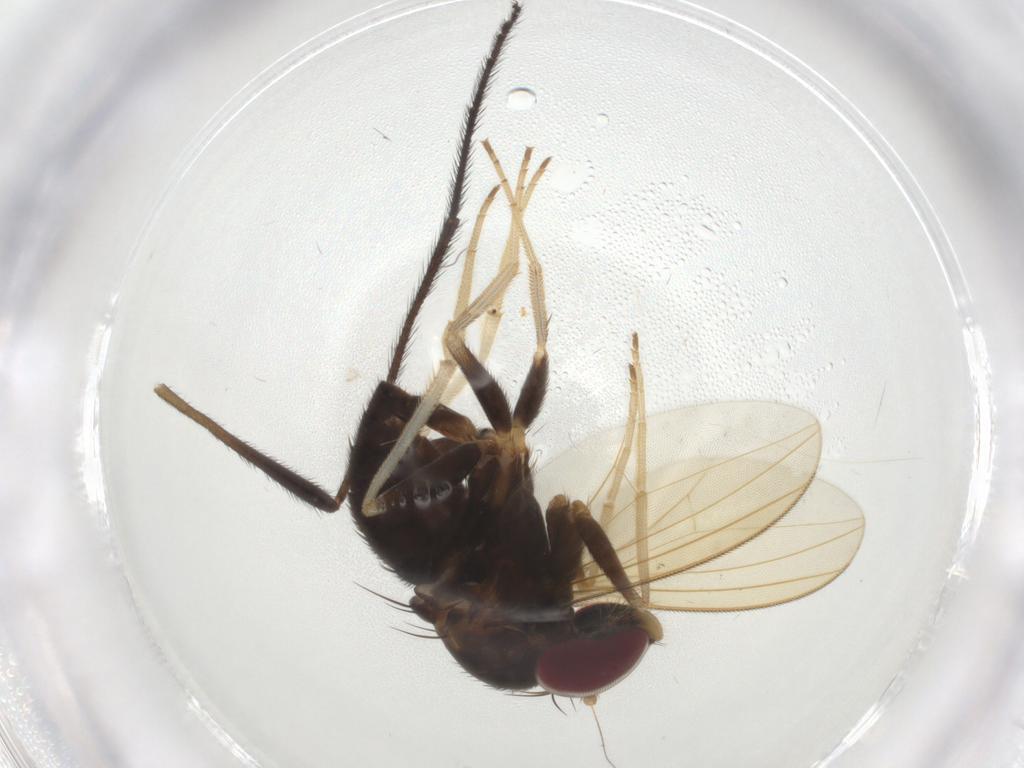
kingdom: Animalia
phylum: Arthropoda
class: Insecta
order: Diptera
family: Dolichopodidae
